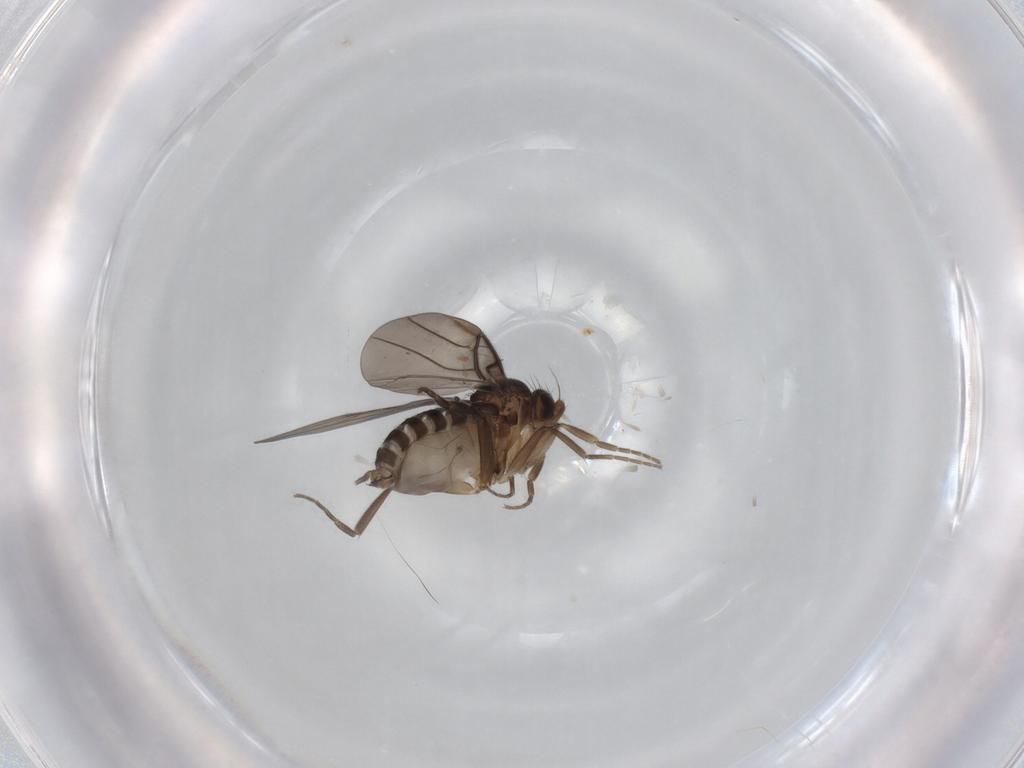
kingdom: Animalia
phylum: Arthropoda
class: Insecta
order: Diptera
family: Phoridae
